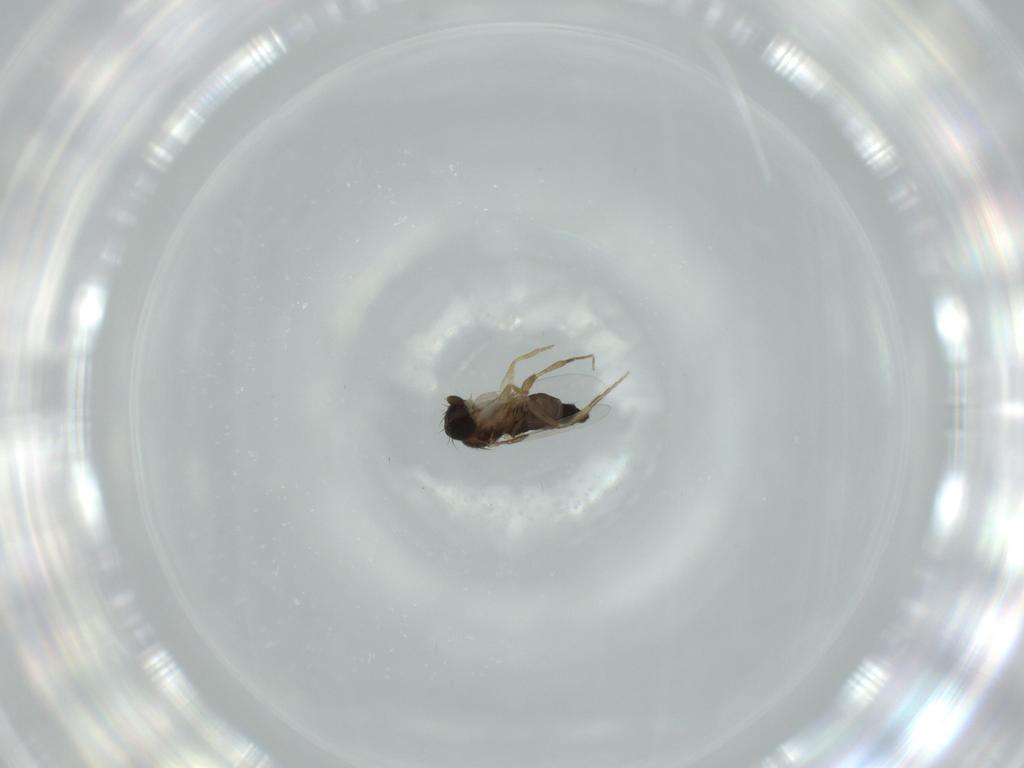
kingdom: Animalia
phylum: Arthropoda
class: Insecta
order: Diptera
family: Phoridae
